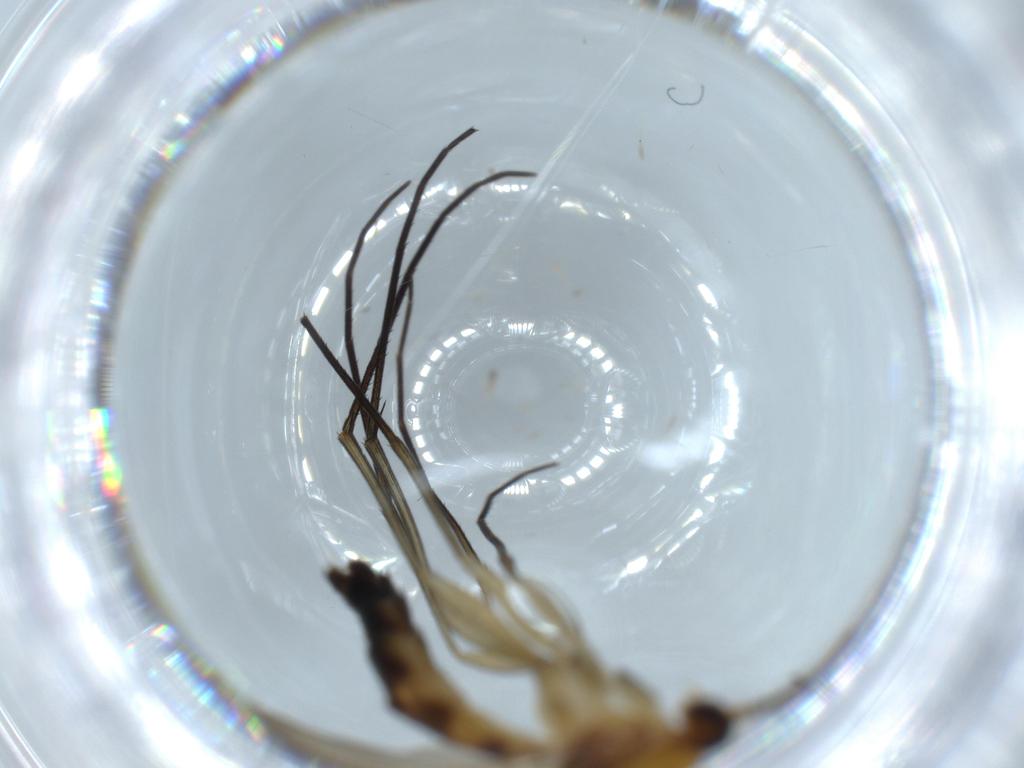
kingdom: Animalia
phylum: Arthropoda
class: Insecta
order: Diptera
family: Keroplatidae
